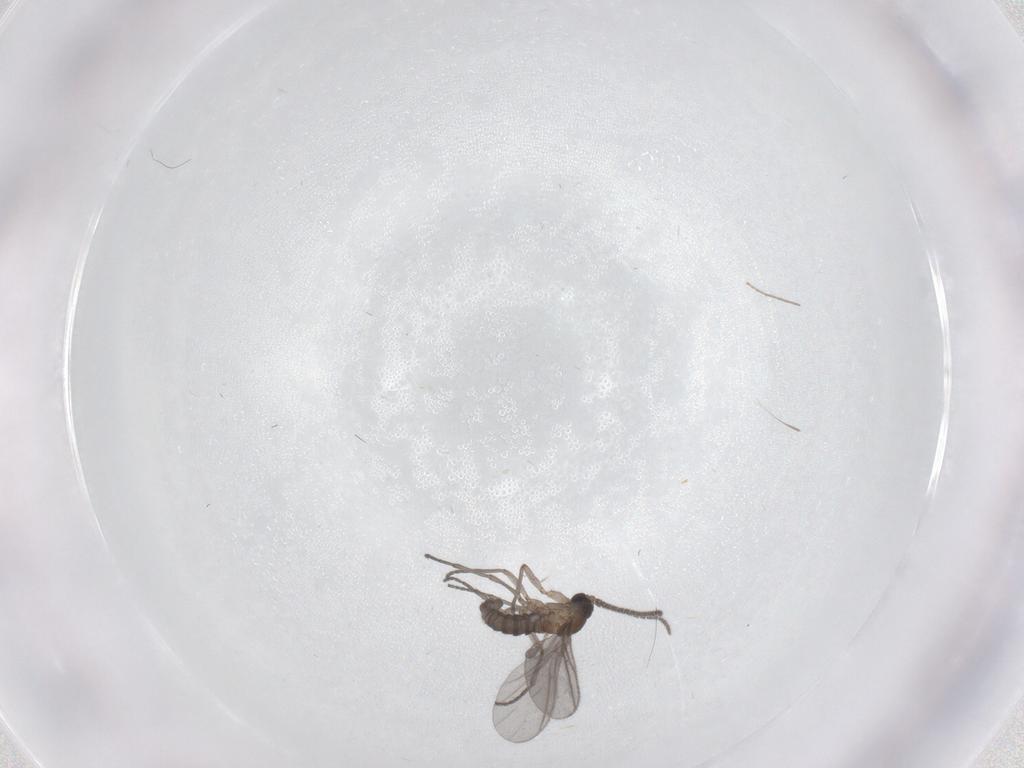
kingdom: Animalia
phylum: Arthropoda
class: Insecta
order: Diptera
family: Sciaridae
